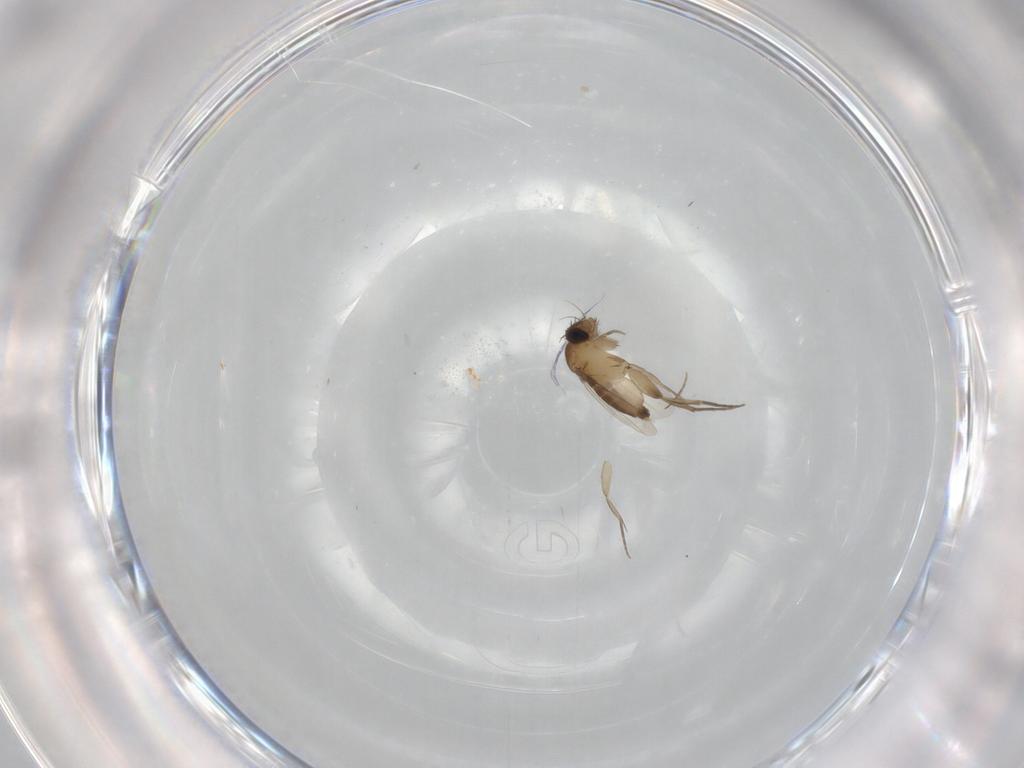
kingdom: Animalia
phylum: Arthropoda
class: Insecta
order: Diptera
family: Phoridae
